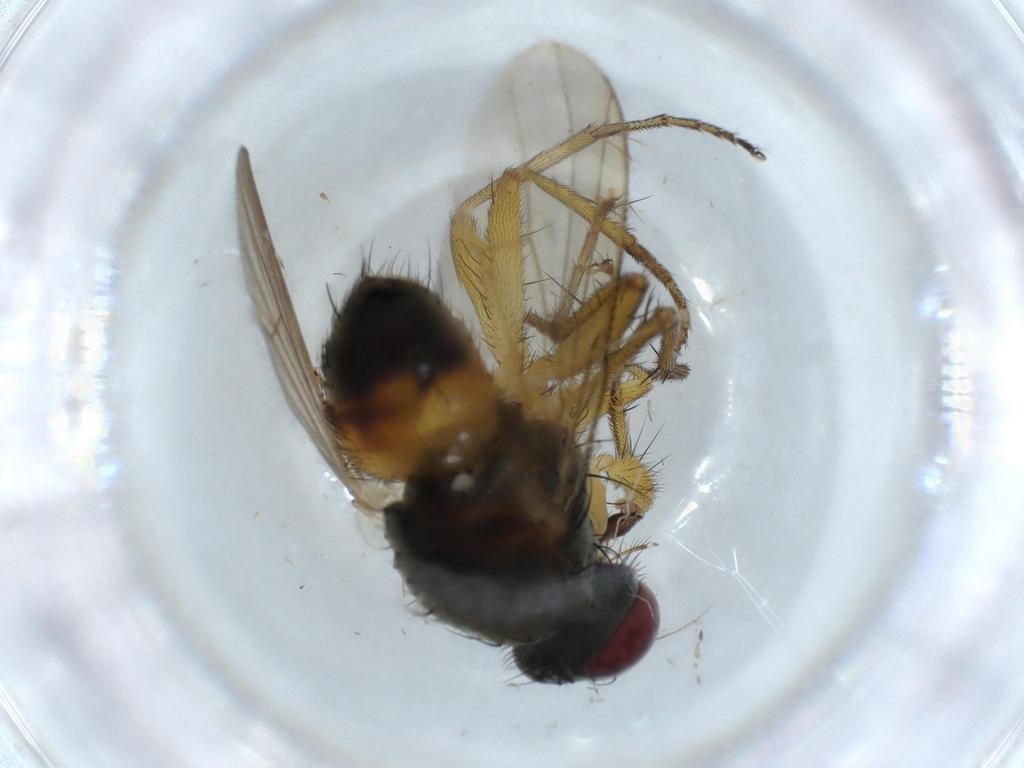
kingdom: Animalia
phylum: Arthropoda
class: Insecta
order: Diptera
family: Muscidae
